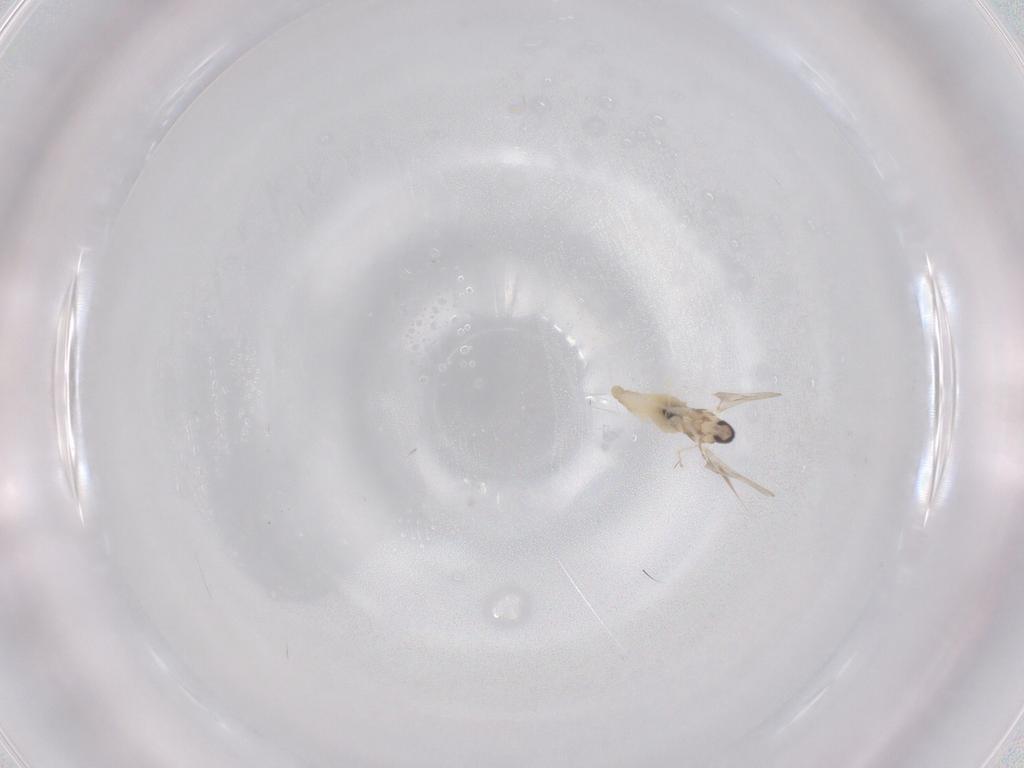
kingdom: Animalia
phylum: Arthropoda
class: Insecta
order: Diptera
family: Cecidomyiidae
